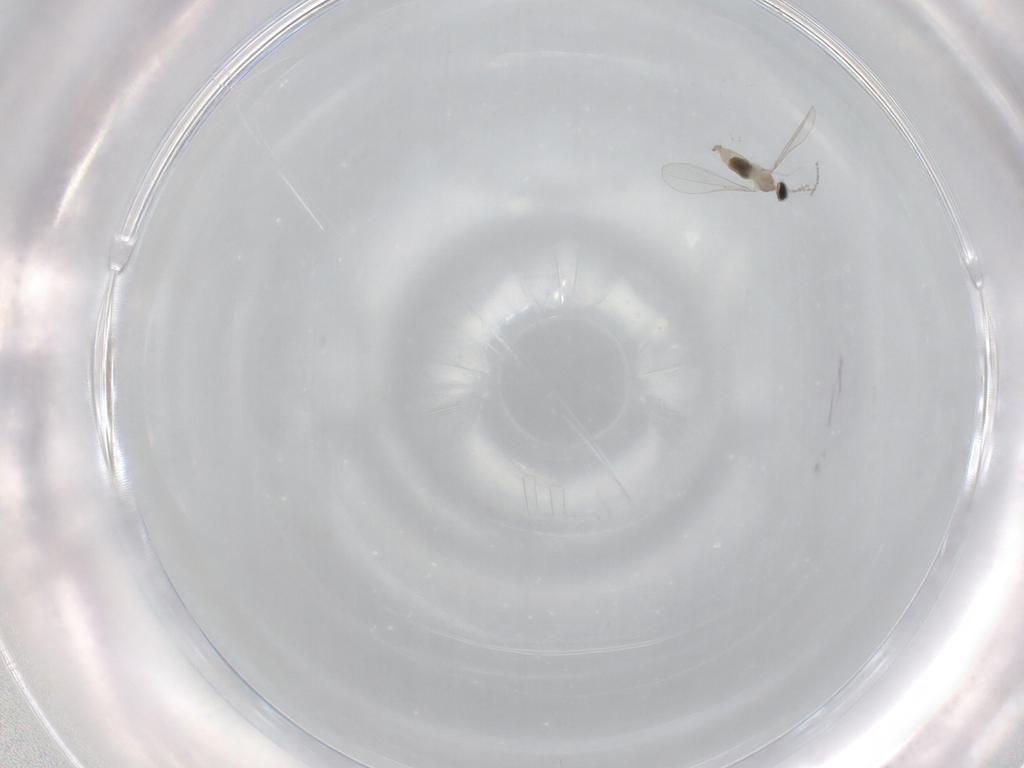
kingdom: Animalia
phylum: Arthropoda
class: Insecta
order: Diptera
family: Cecidomyiidae
